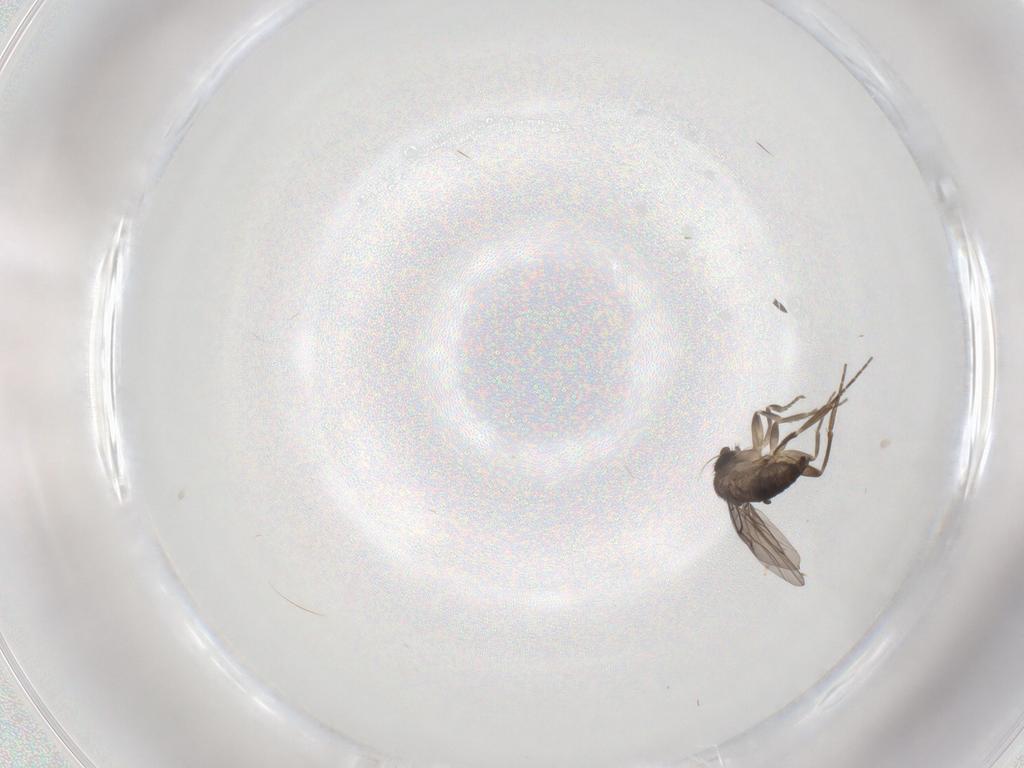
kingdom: Animalia
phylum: Arthropoda
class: Insecta
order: Diptera
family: Phoridae
